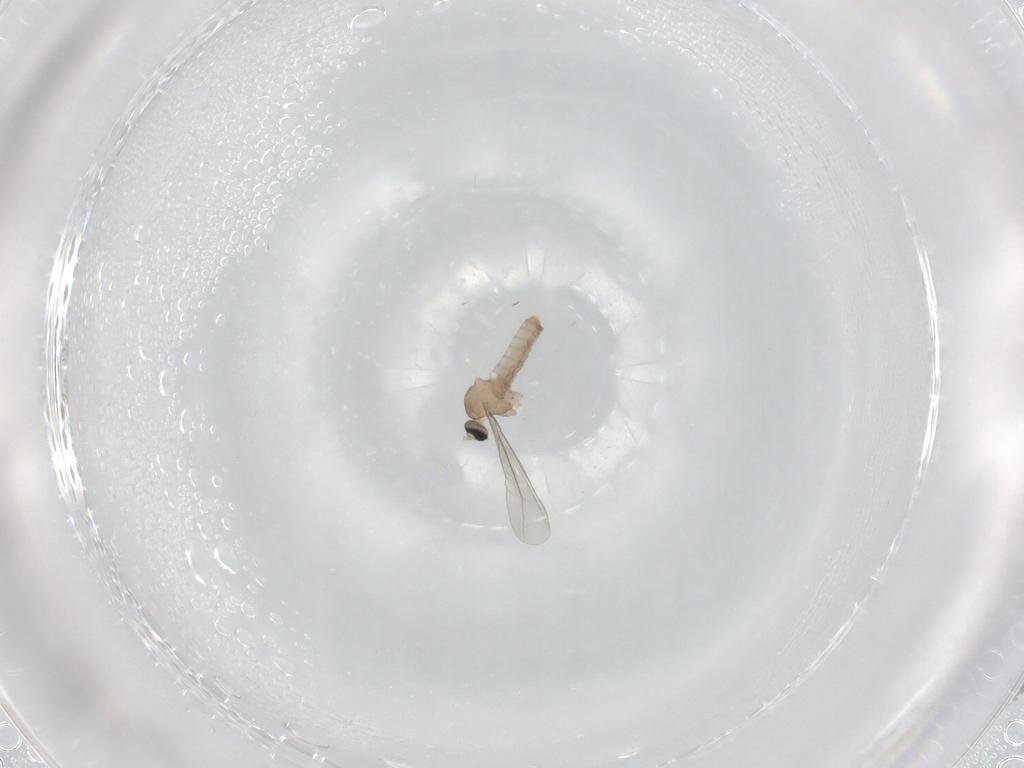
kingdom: Animalia
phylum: Arthropoda
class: Insecta
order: Diptera
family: Cecidomyiidae
